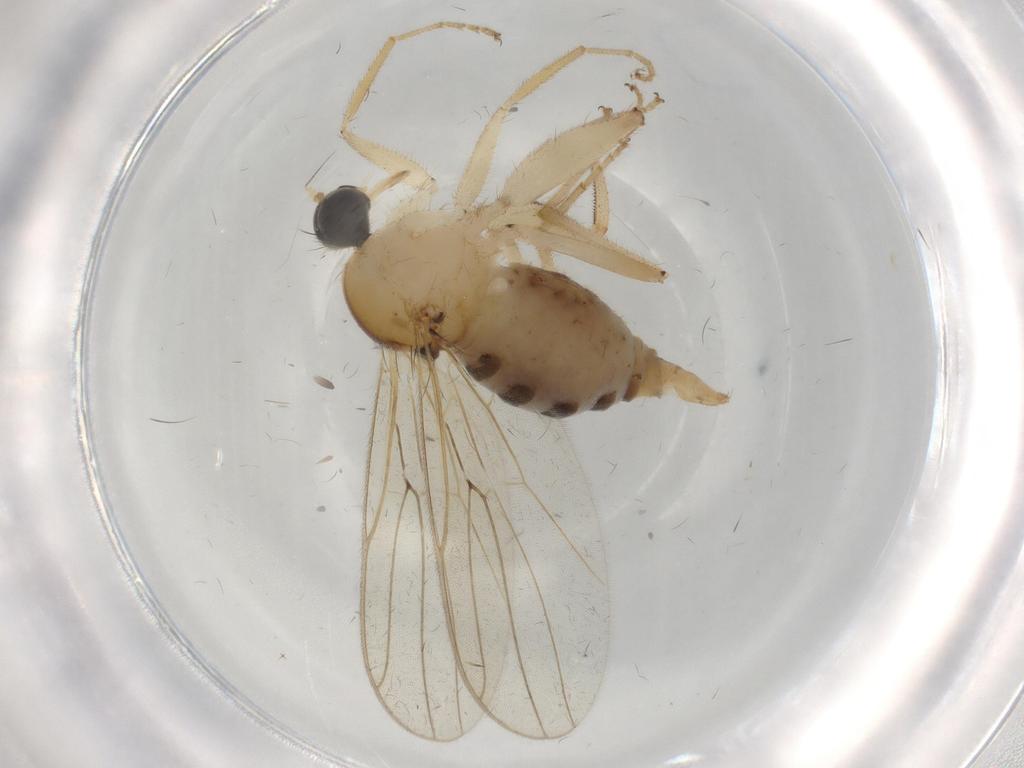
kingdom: Animalia
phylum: Arthropoda
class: Insecta
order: Diptera
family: Hybotidae
